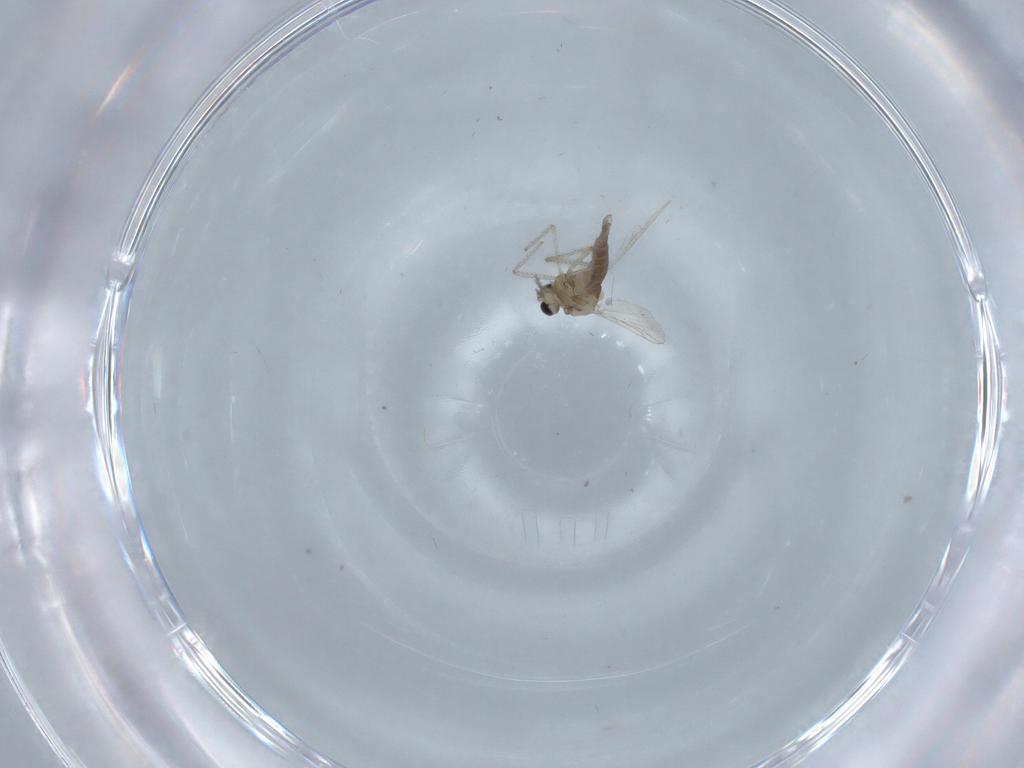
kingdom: Animalia
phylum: Arthropoda
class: Insecta
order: Diptera
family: Chironomidae
